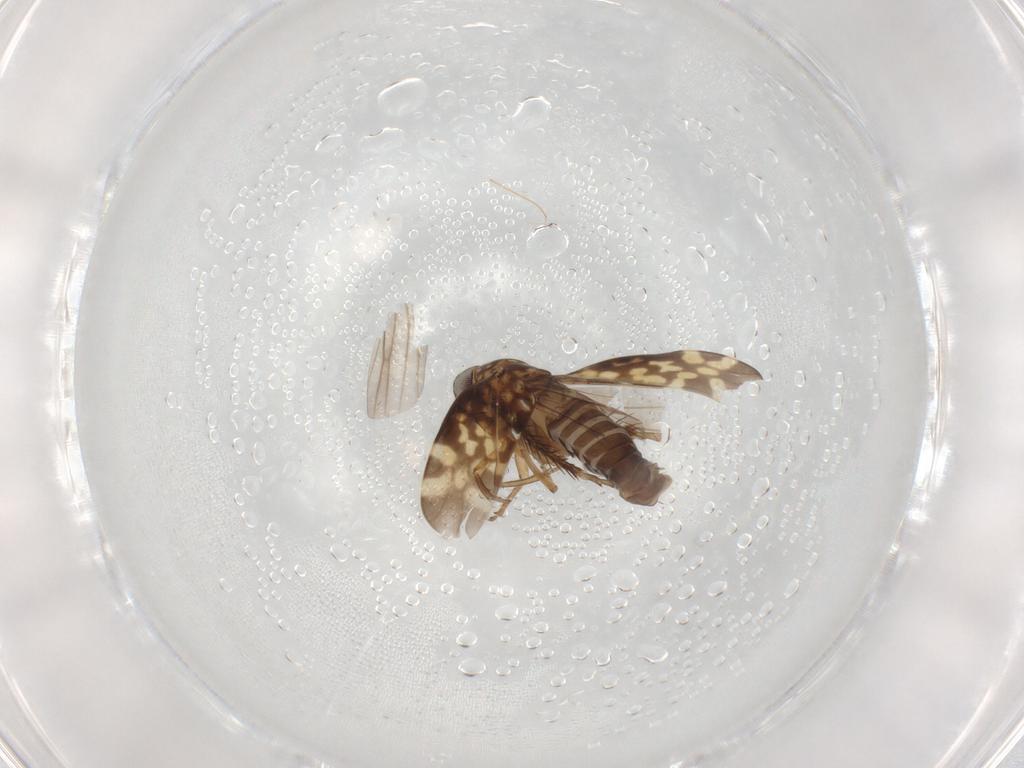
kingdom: Animalia
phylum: Arthropoda
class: Insecta
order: Hemiptera
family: Cicadellidae
